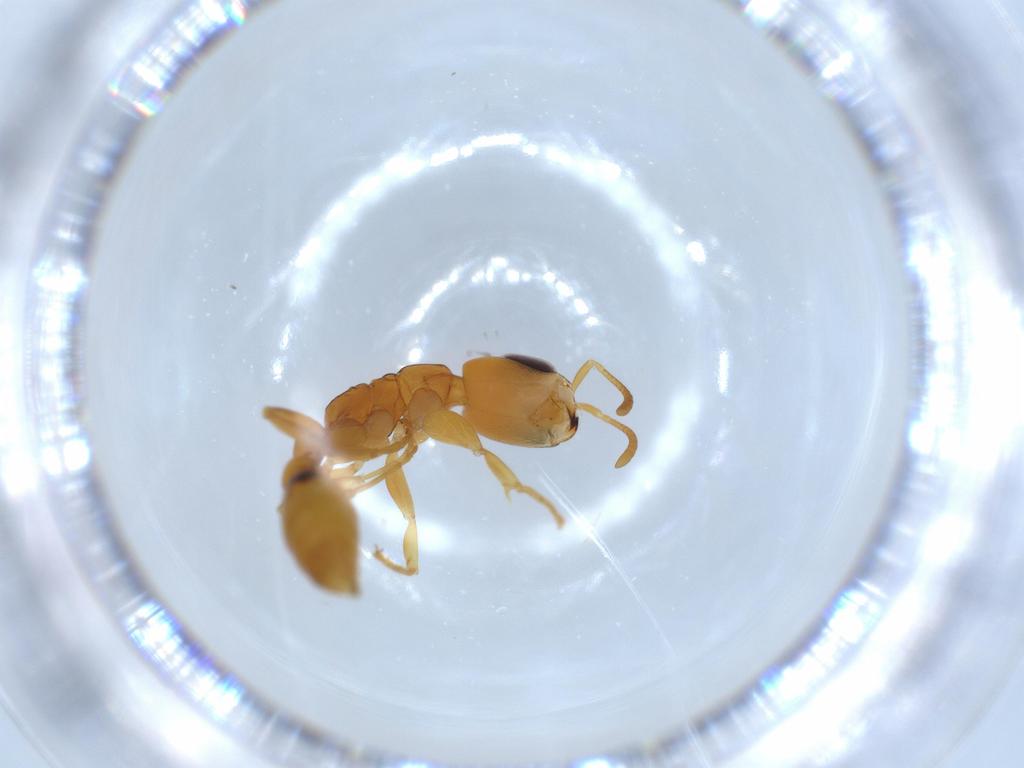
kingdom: Animalia
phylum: Arthropoda
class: Insecta
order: Hymenoptera
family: Formicidae
